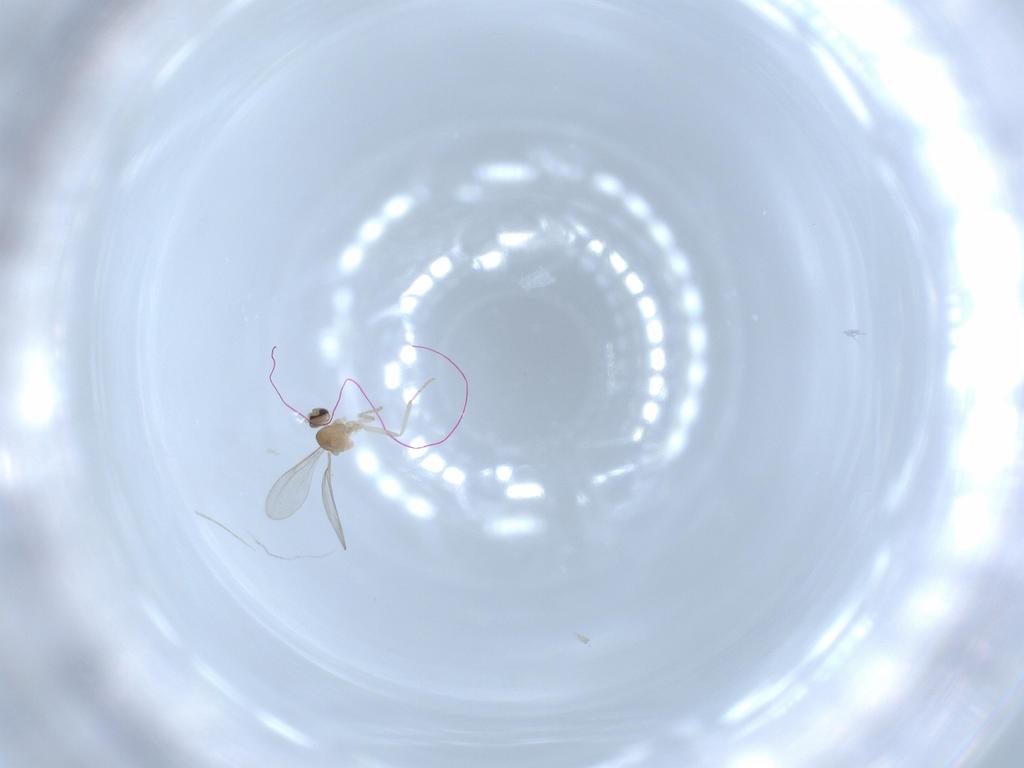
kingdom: Animalia
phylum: Arthropoda
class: Insecta
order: Diptera
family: Cecidomyiidae
